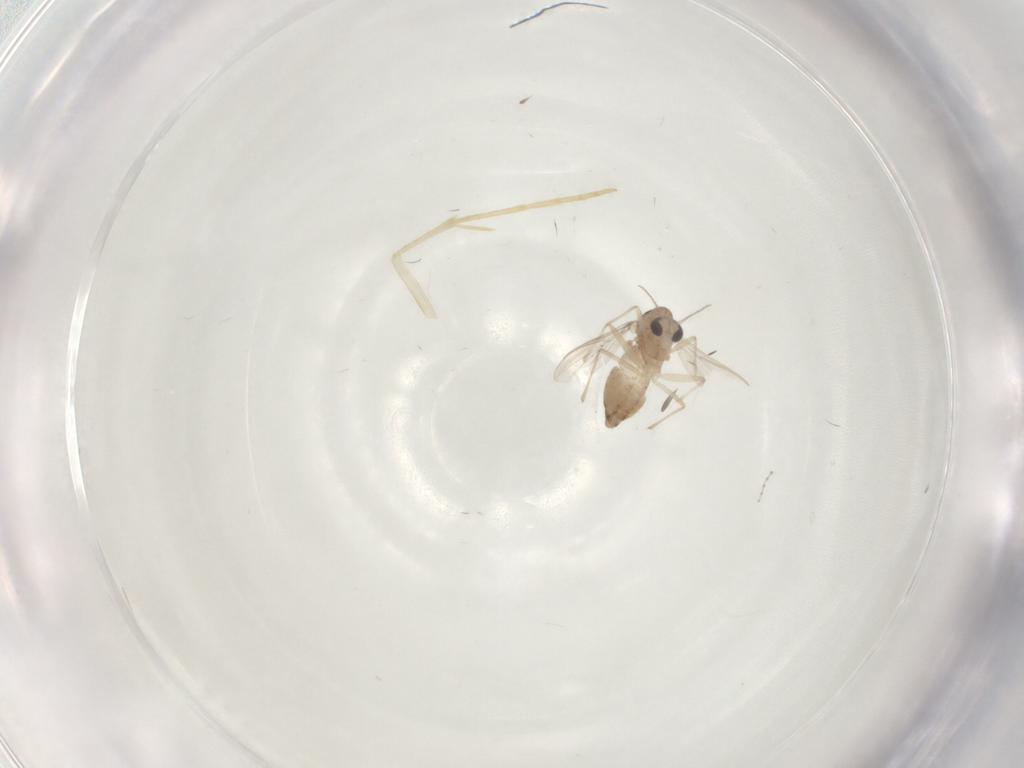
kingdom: Animalia
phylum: Arthropoda
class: Insecta
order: Diptera
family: Chironomidae
